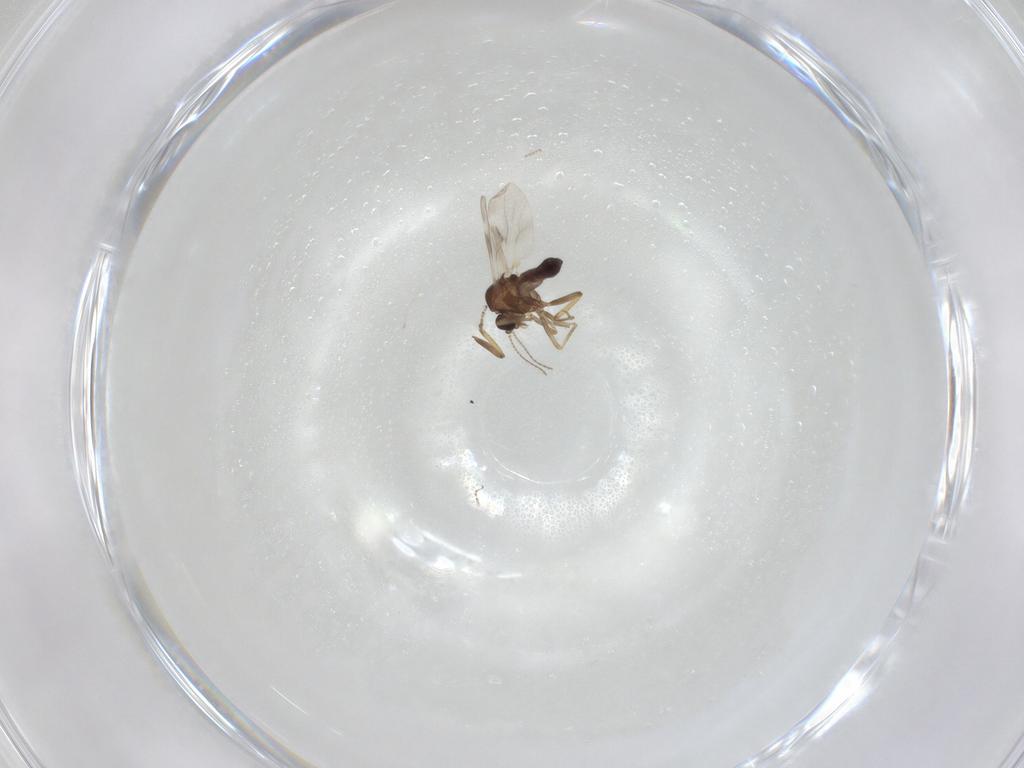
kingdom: Animalia
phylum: Arthropoda
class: Insecta
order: Diptera
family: Ceratopogonidae
